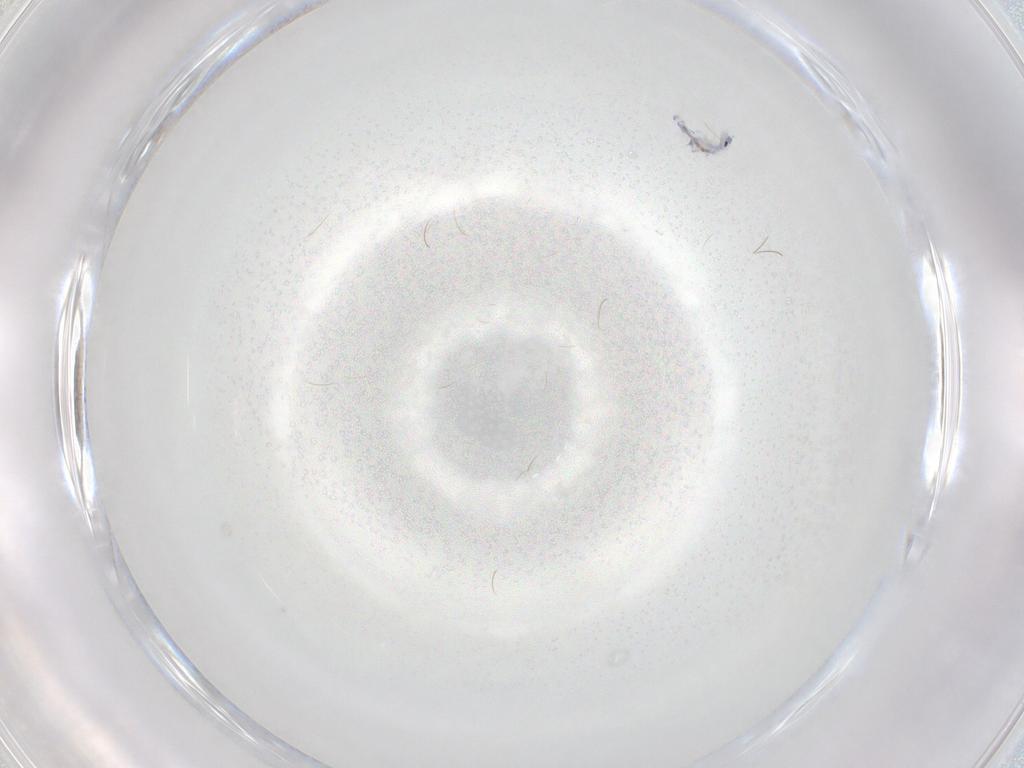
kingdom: Animalia
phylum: Arthropoda
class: Collembola
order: Entomobryomorpha
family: Entomobryidae
